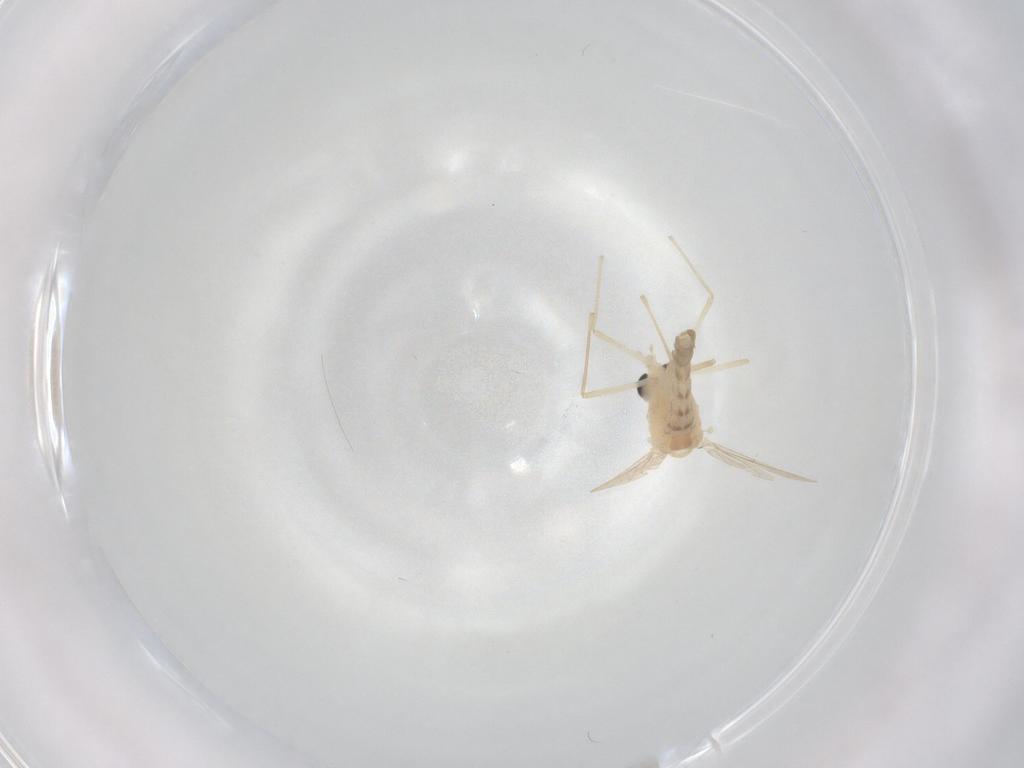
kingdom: Animalia
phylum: Arthropoda
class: Insecta
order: Diptera
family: Chironomidae
